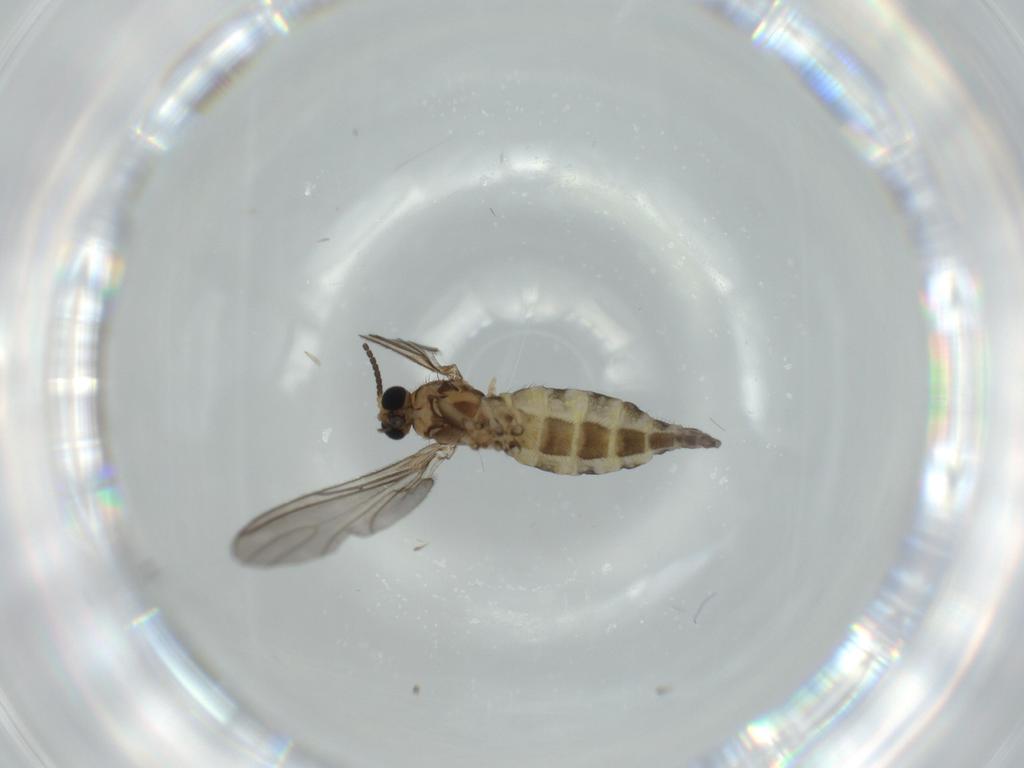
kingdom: Animalia
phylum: Arthropoda
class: Insecta
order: Diptera
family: Sciaridae
